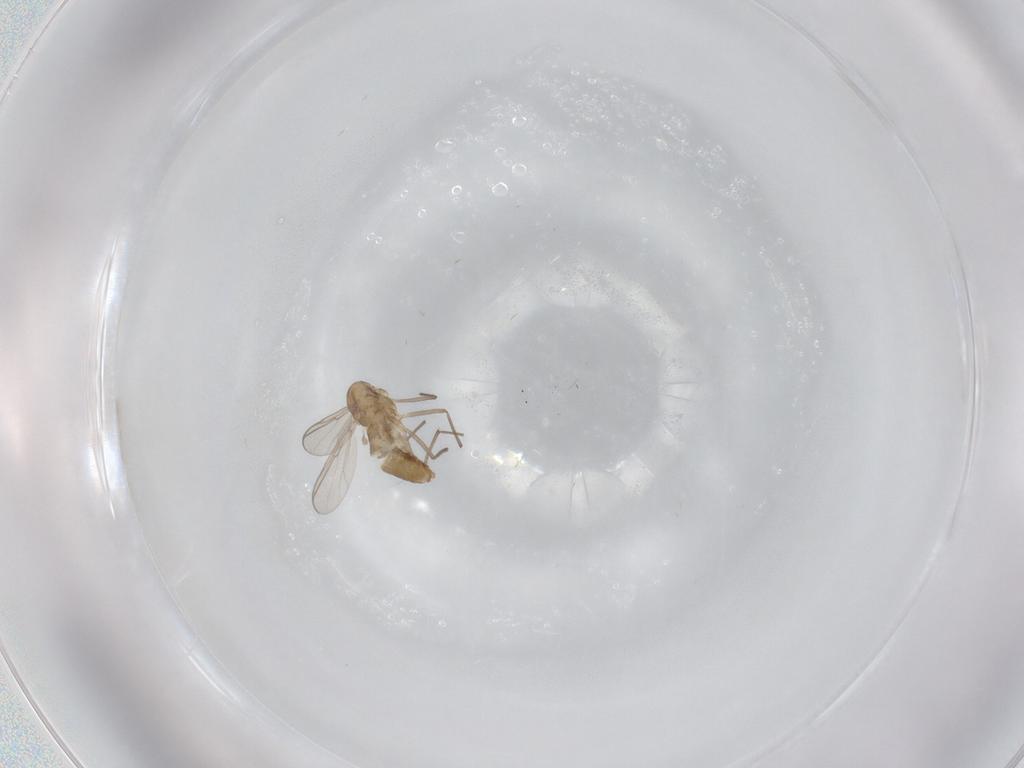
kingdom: Animalia
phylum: Arthropoda
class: Insecta
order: Diptera
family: Chironomidae
